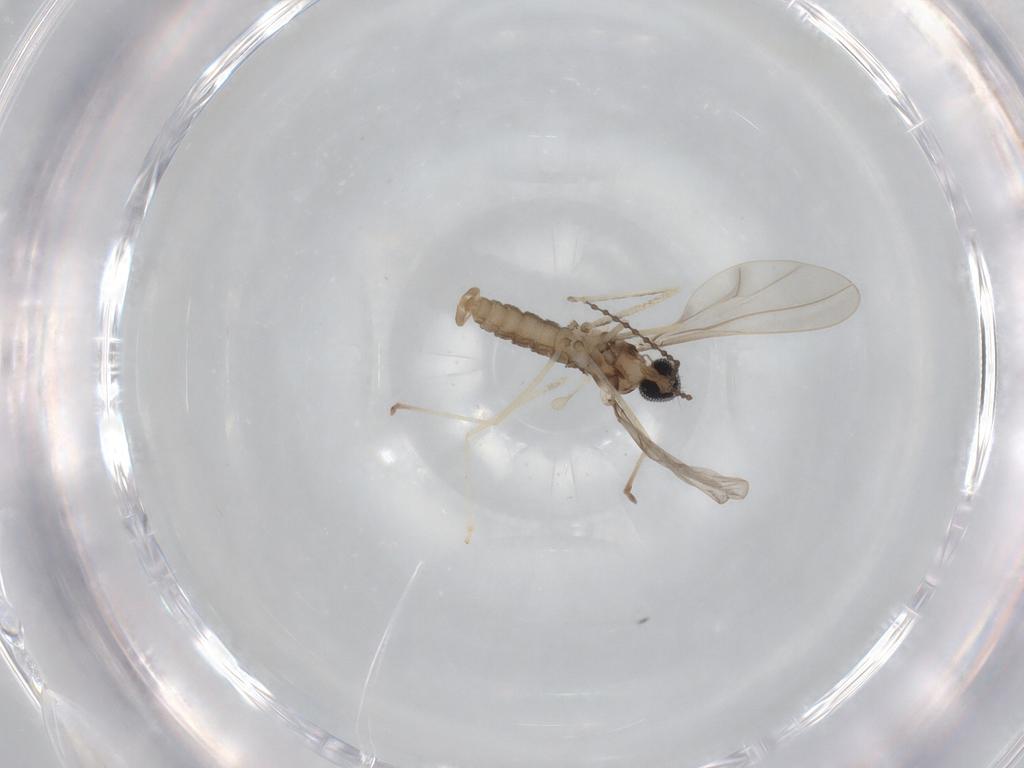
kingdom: Animalia
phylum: Arthropoda
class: Insecta
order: Diptera
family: Cecidomyiidae
